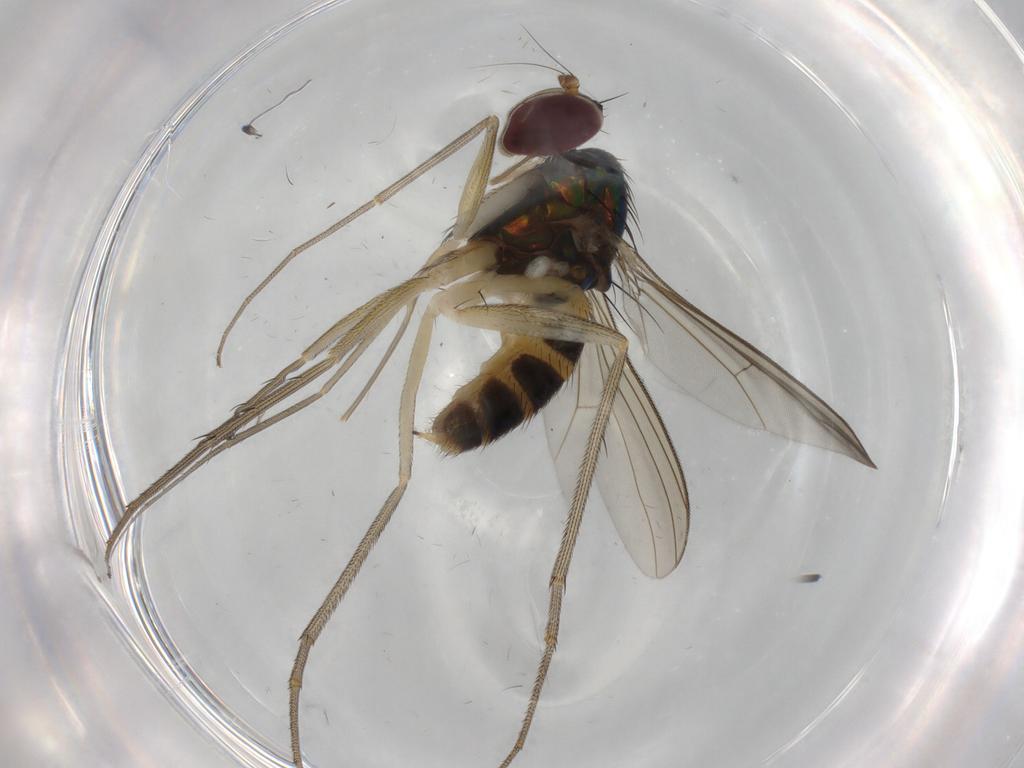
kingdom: Animalia
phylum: Arthropoda
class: Insecta
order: Diptera
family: Dolichopodidae
